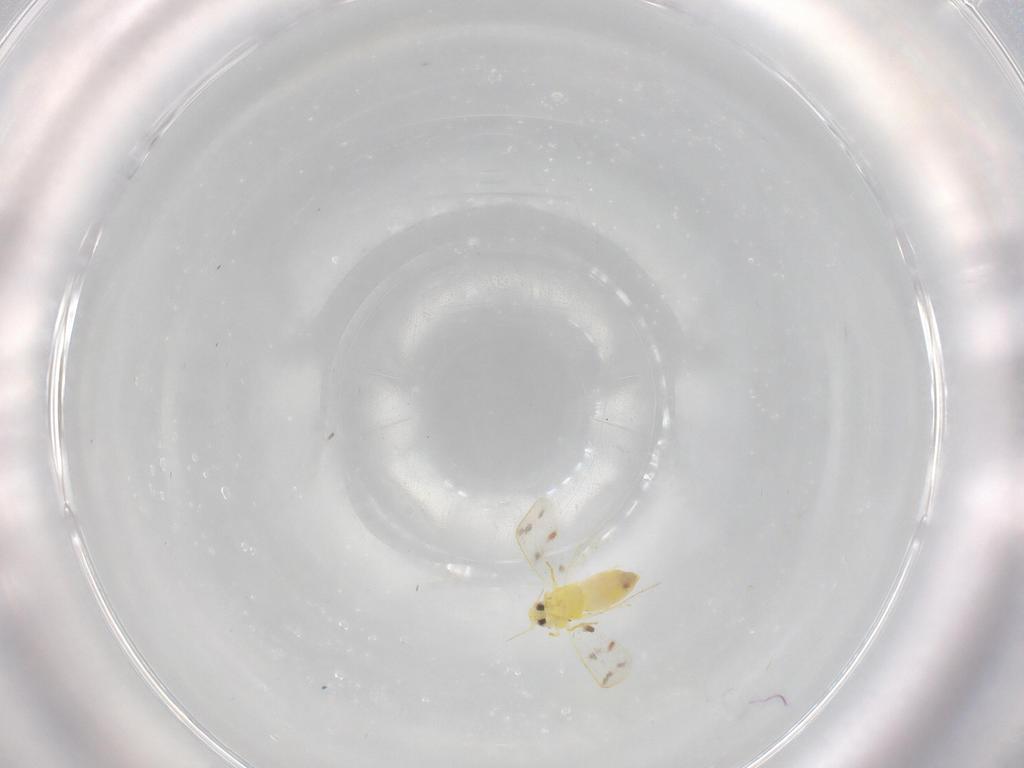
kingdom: Animalia
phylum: Arthropoda
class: Insecta
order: Hemiptera
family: Aleyrodidae
